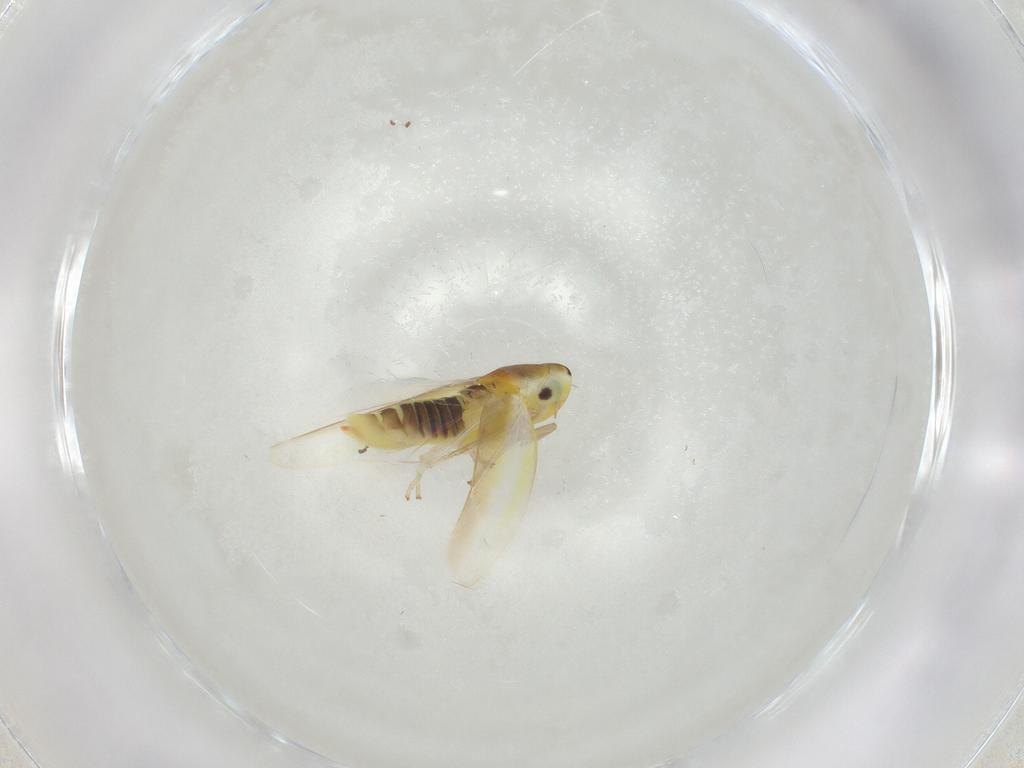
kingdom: Animalia
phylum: Arthropoda
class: Insecta
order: Hemiptera
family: Cicadellidae
